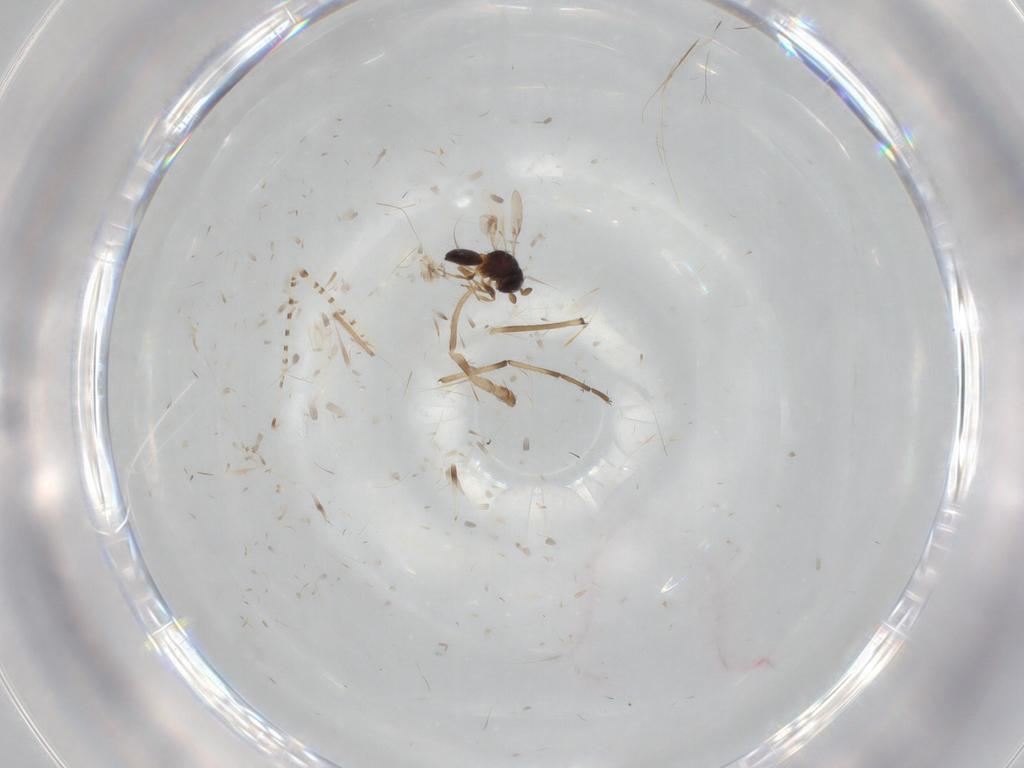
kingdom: Animalia
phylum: Arthropoda
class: Insecta
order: Hymenoptera
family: Scelionidae
